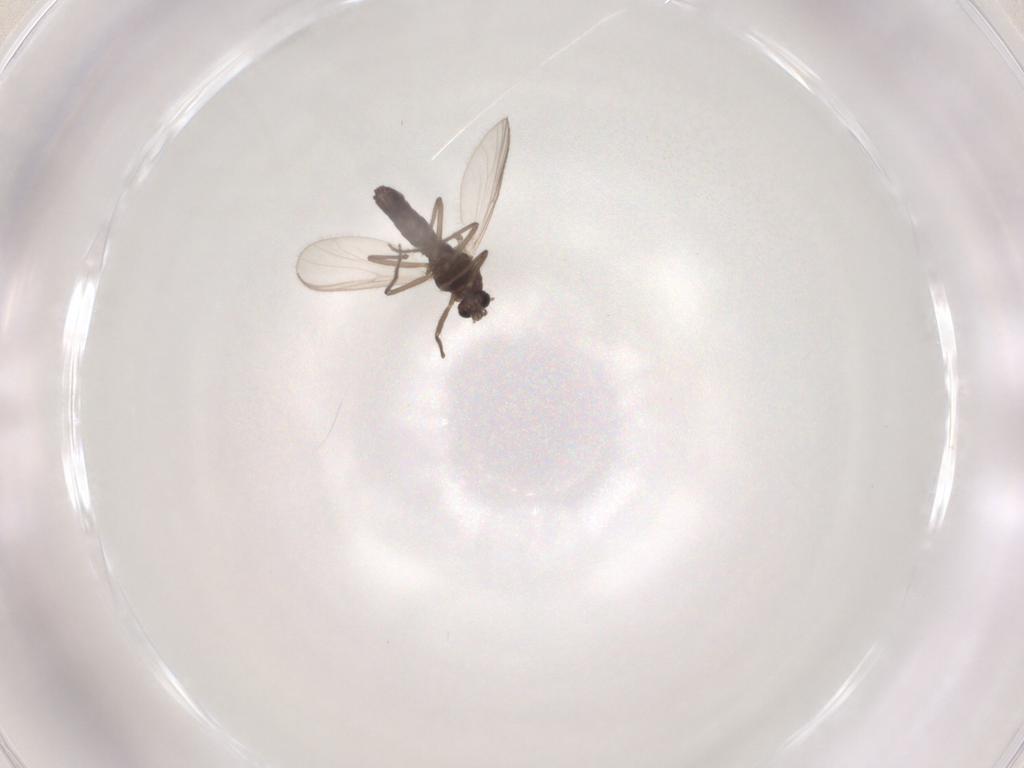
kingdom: Animalia
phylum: Arthropoda
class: Insecta
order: Diptera
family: Chironomidae
